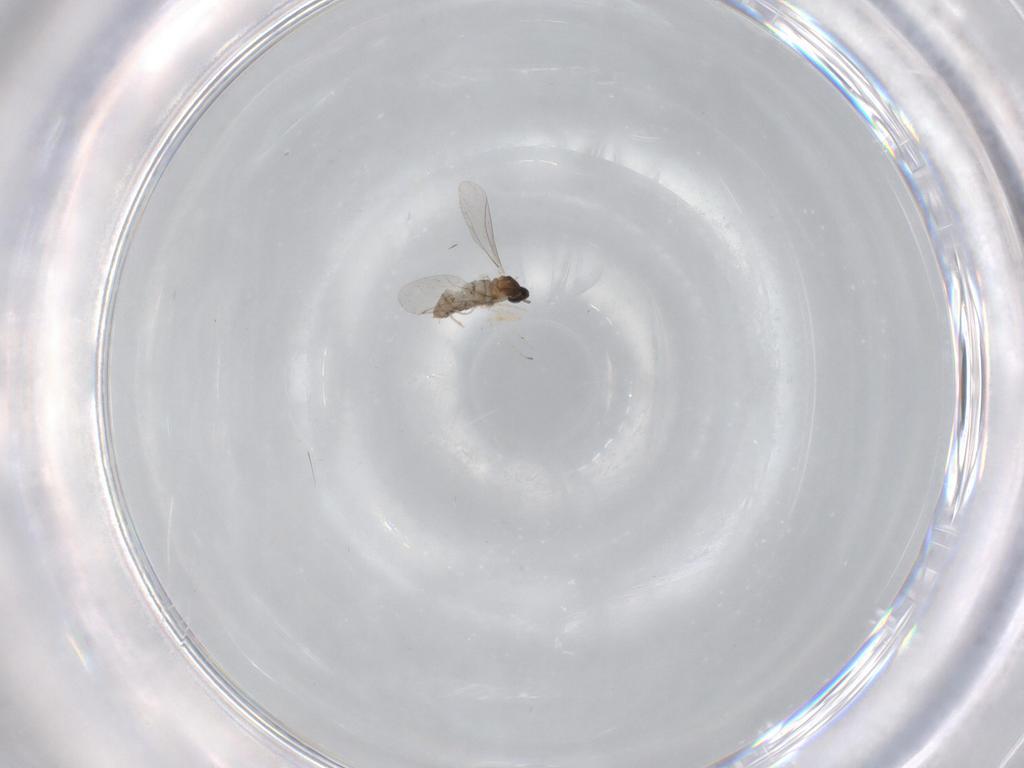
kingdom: Animalia
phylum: Arthropoda
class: Insecta
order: Diptera
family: Cecidomyiidae
